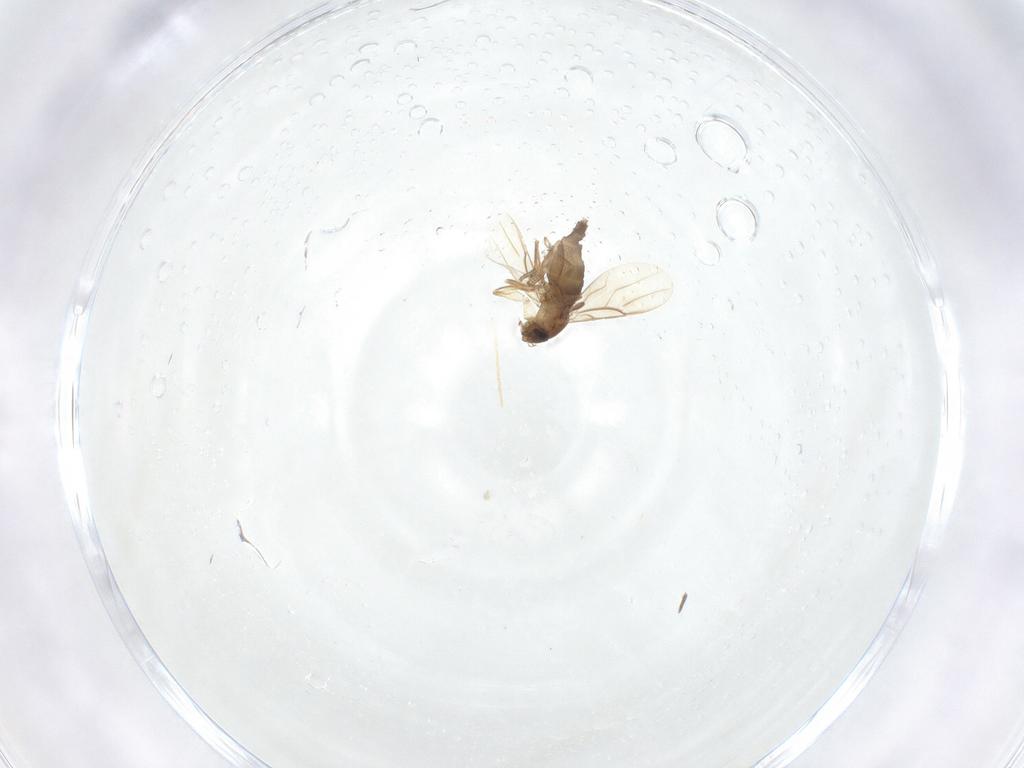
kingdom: Animalia
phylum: Arthropoda
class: Insecta
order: Diptera
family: Phoridae
